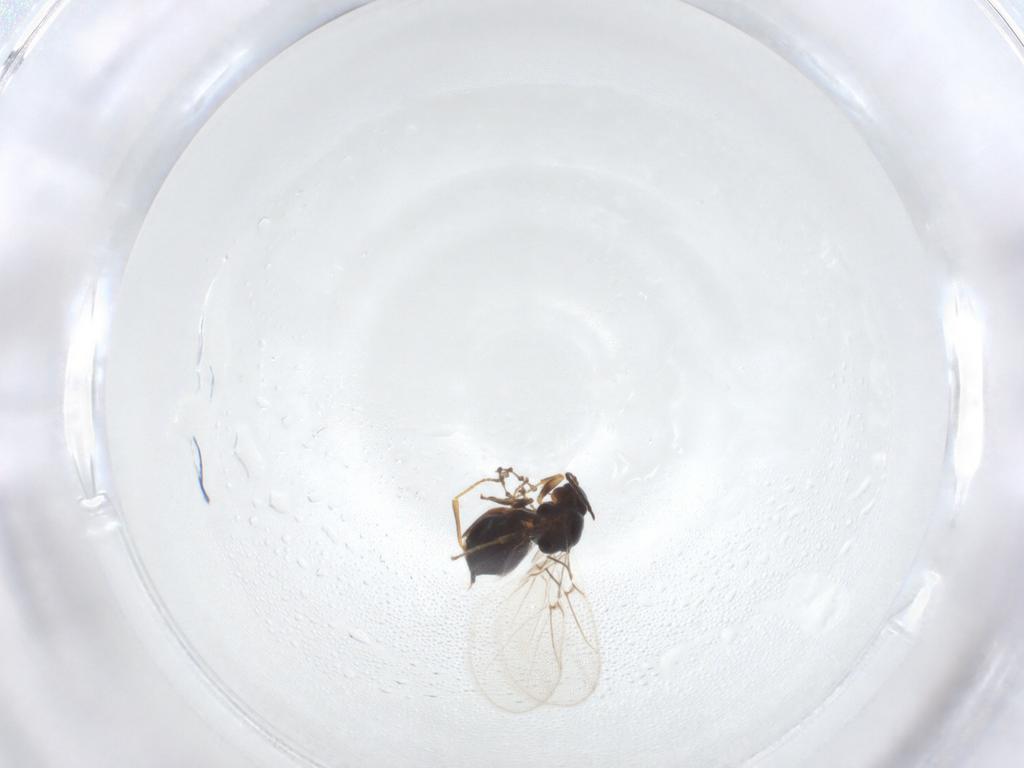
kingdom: Animalia
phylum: Arthropoda
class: Insecta
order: Hymenoptera
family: Cynipidae
